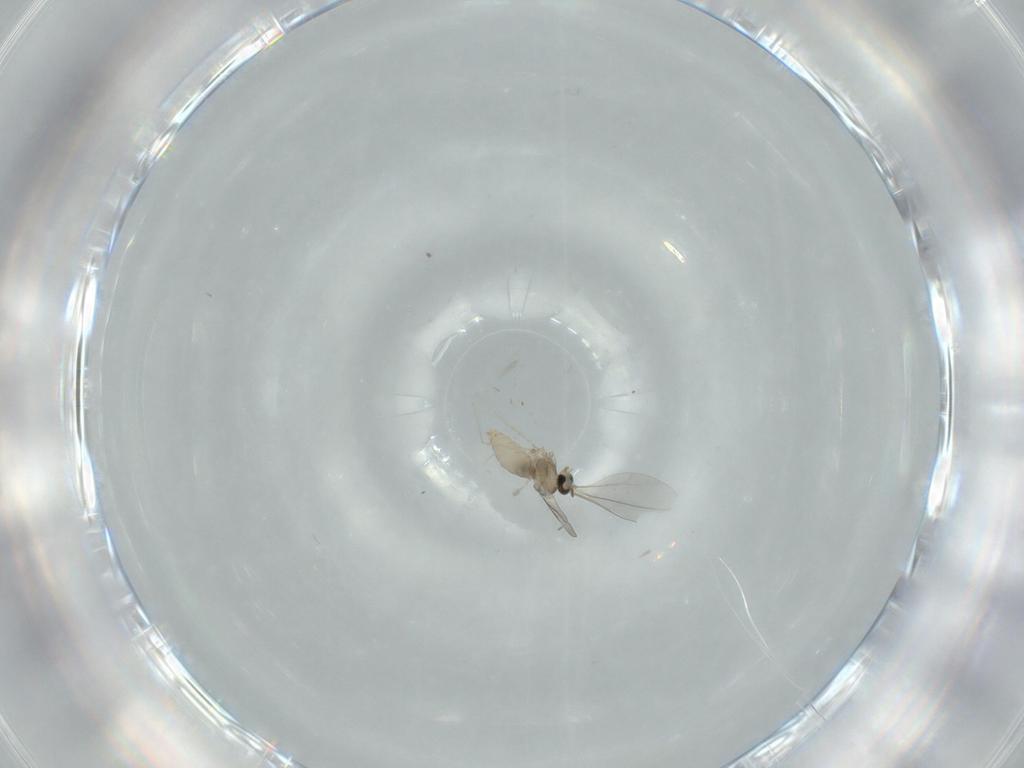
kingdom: Animalia
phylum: Arthropoda
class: Insecta
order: Diptera
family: Cecidomyiidae
